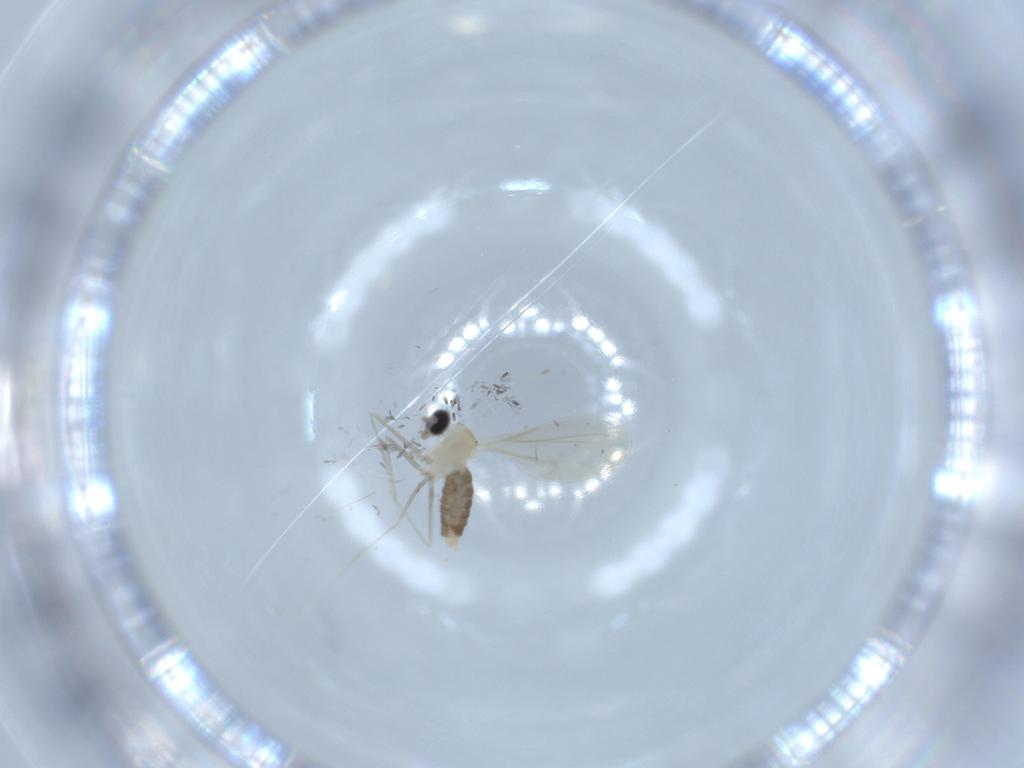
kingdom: Animalia
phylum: Arthropoda
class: Insecta
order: Diptera
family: Cecidomyiidae
